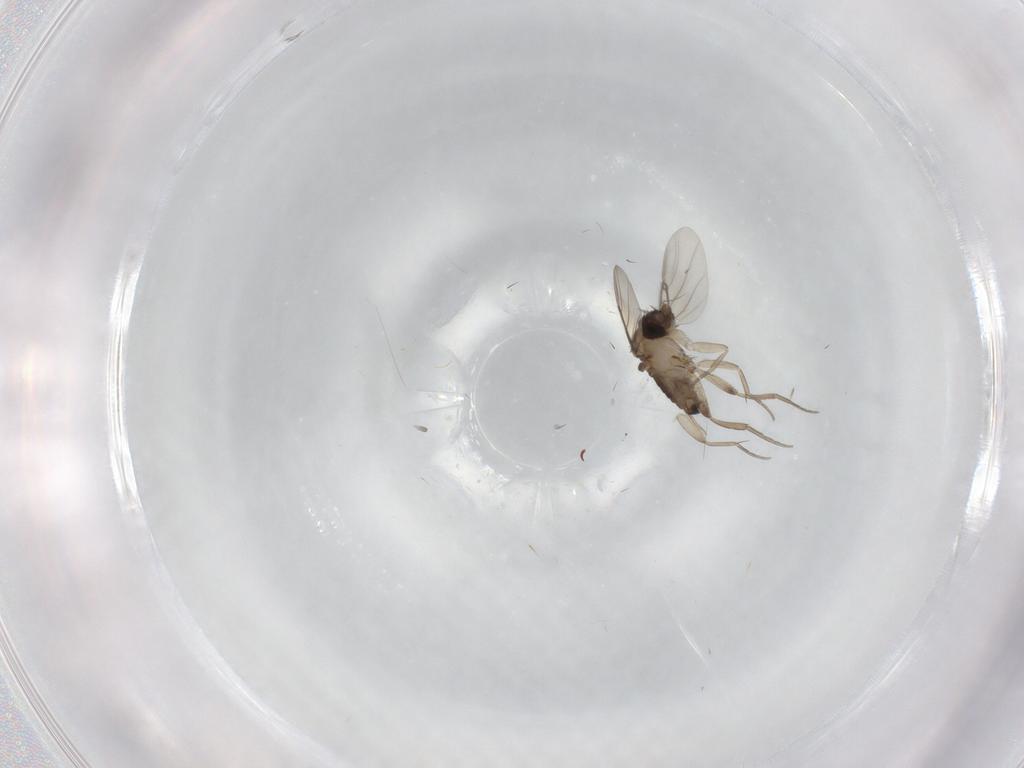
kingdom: Animalia
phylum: Arthropoda
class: Insecta
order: Diptera
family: Phoridae
